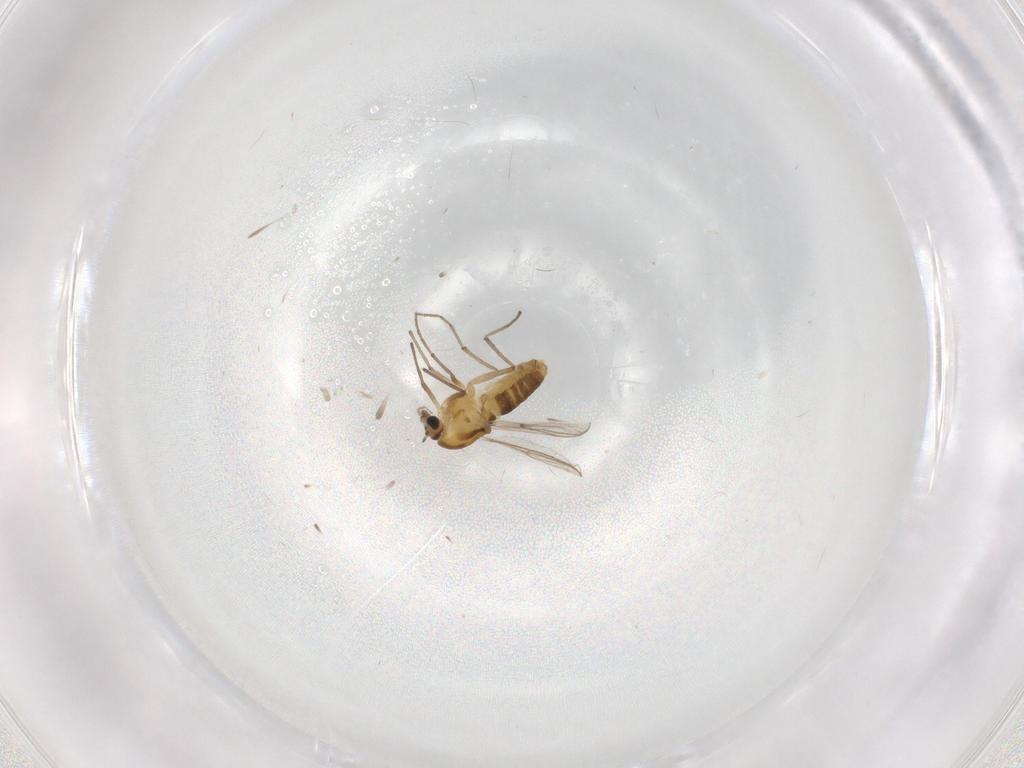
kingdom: Animalia
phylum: Arthropoda
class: Insecta
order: Diptera
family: Chironomidae
